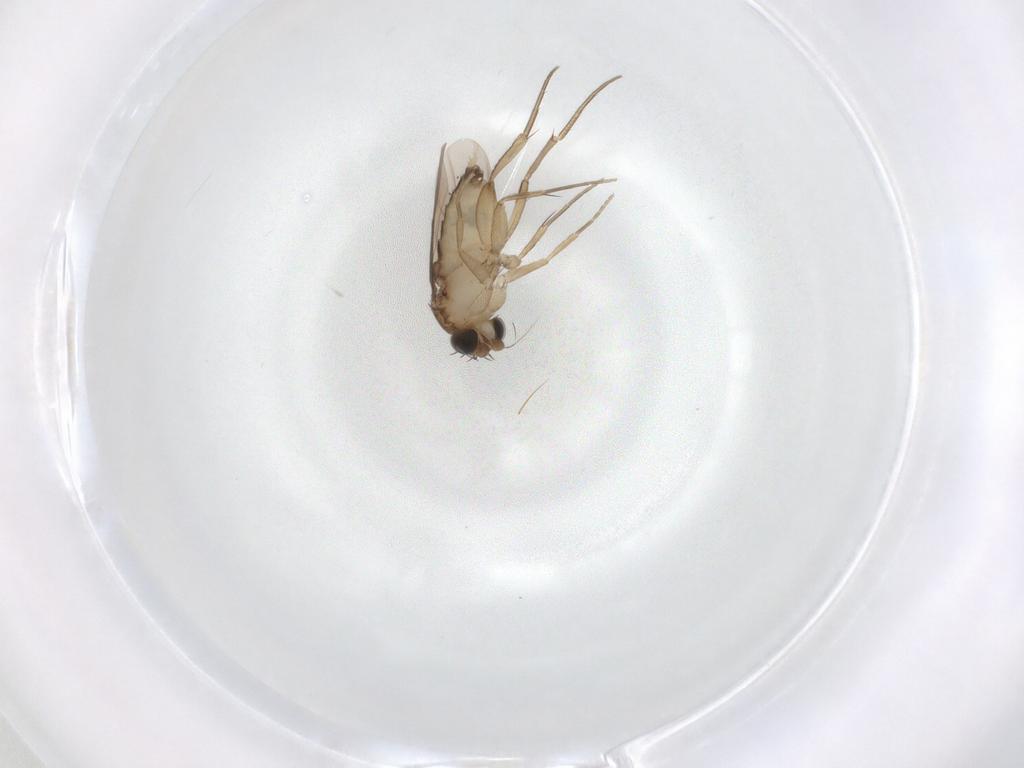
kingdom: Animalia
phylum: Arthropoda
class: Insecta
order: Diptera
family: Phoridae
